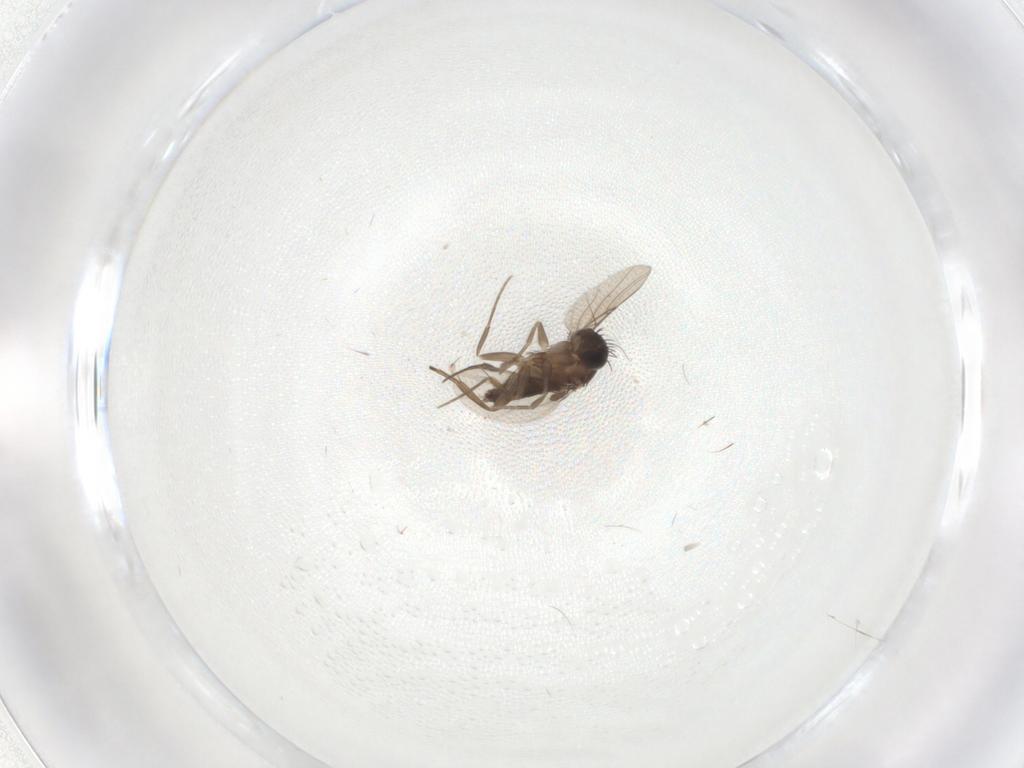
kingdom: Animalia
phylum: Arthropoda
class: Insecta
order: Diptera
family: Phoridae
